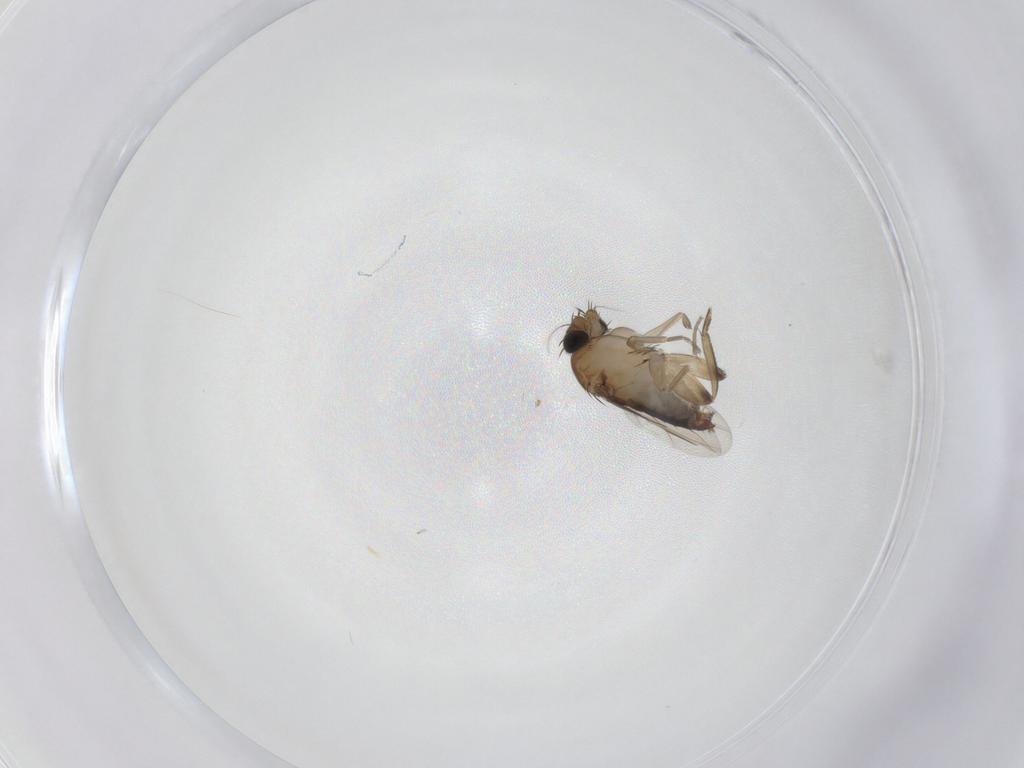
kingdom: Animalia
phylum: Arthropoda
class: Insecta
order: Diptera
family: Phoridae
